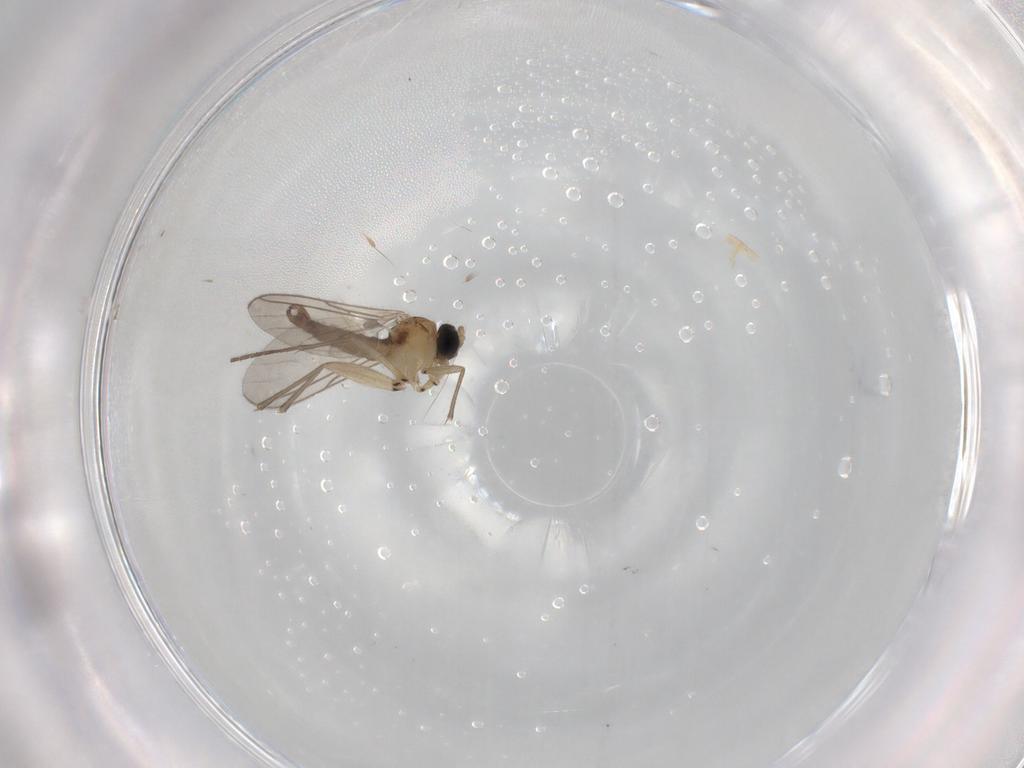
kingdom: Animalia
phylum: Arthropoda
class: Insecta
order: Diptera
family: Sciaridae
